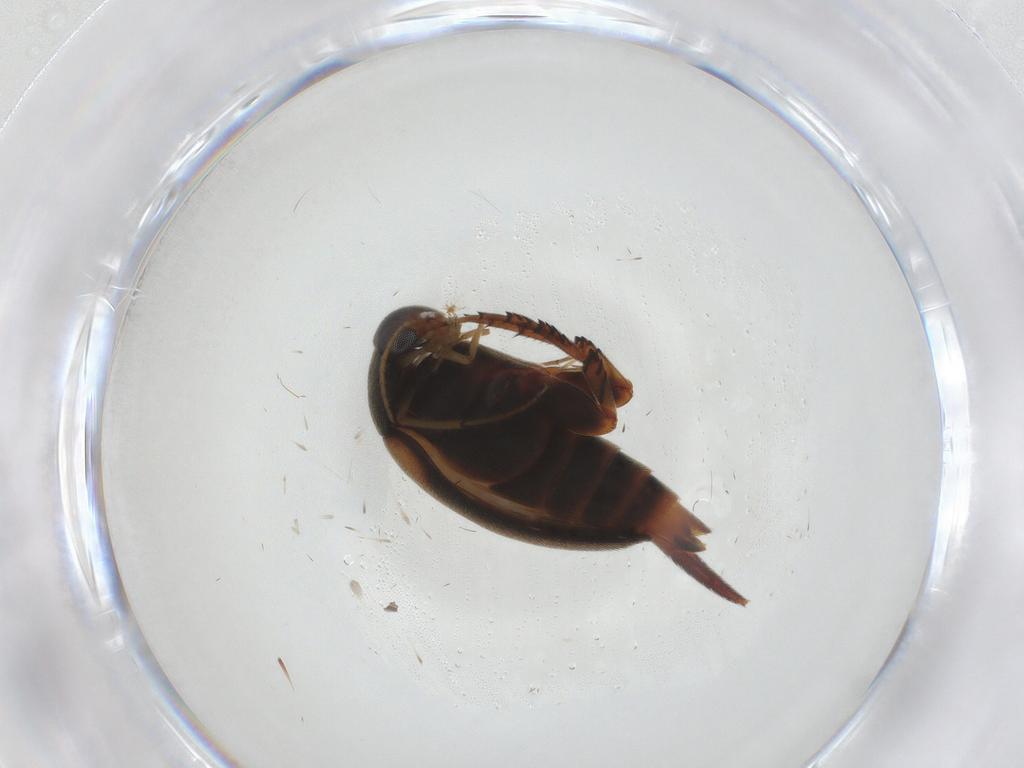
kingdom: Animalia
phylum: Arthropoda
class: Insecta
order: Coleoptera
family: Mordellidae
